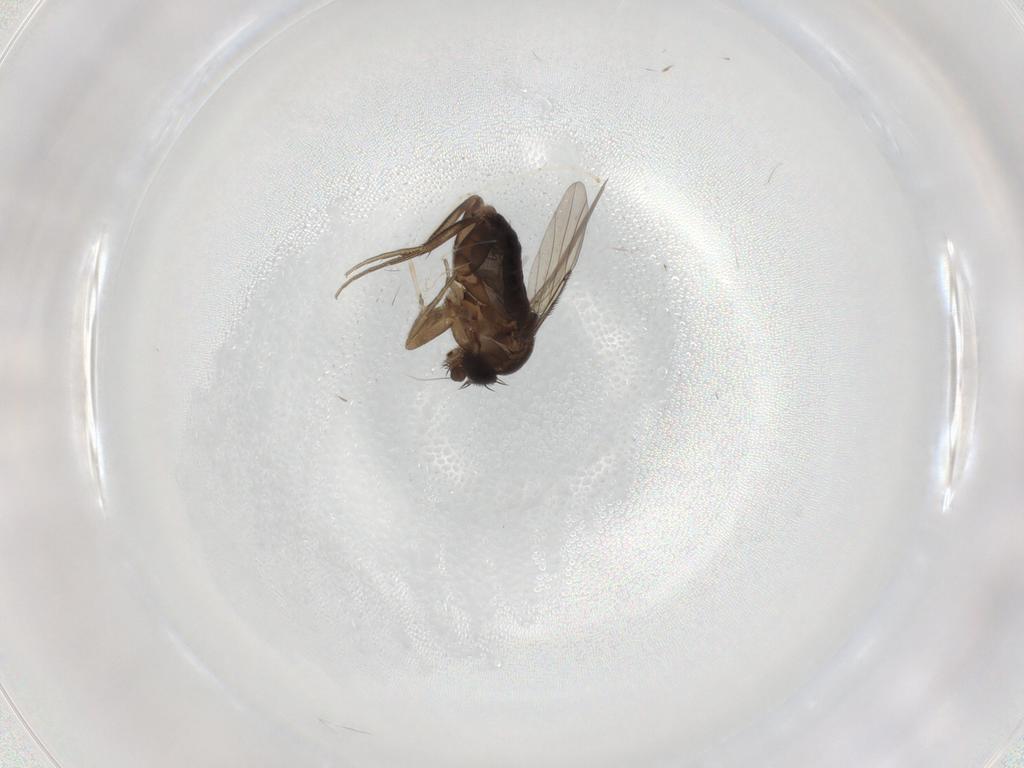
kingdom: Animalia
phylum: Arthropoda
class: Insecta
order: Diptera
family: Phoridae
